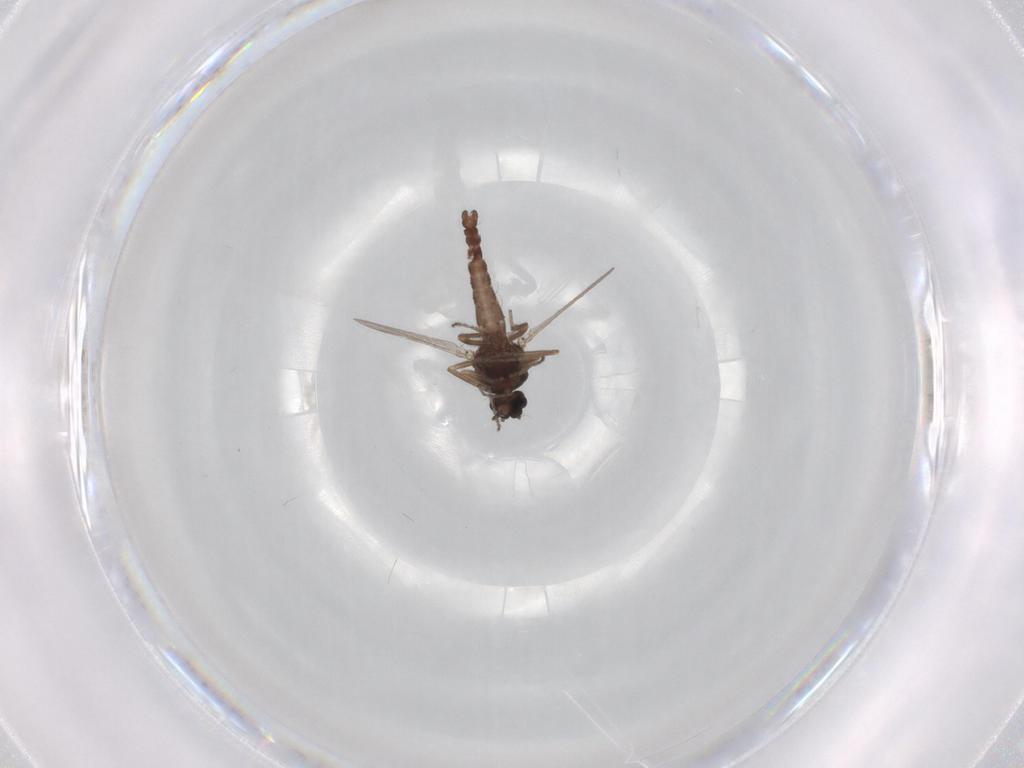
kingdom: Animalia
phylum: Arthropoda
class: Insecta
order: Diptera
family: Ceratopogonidae
